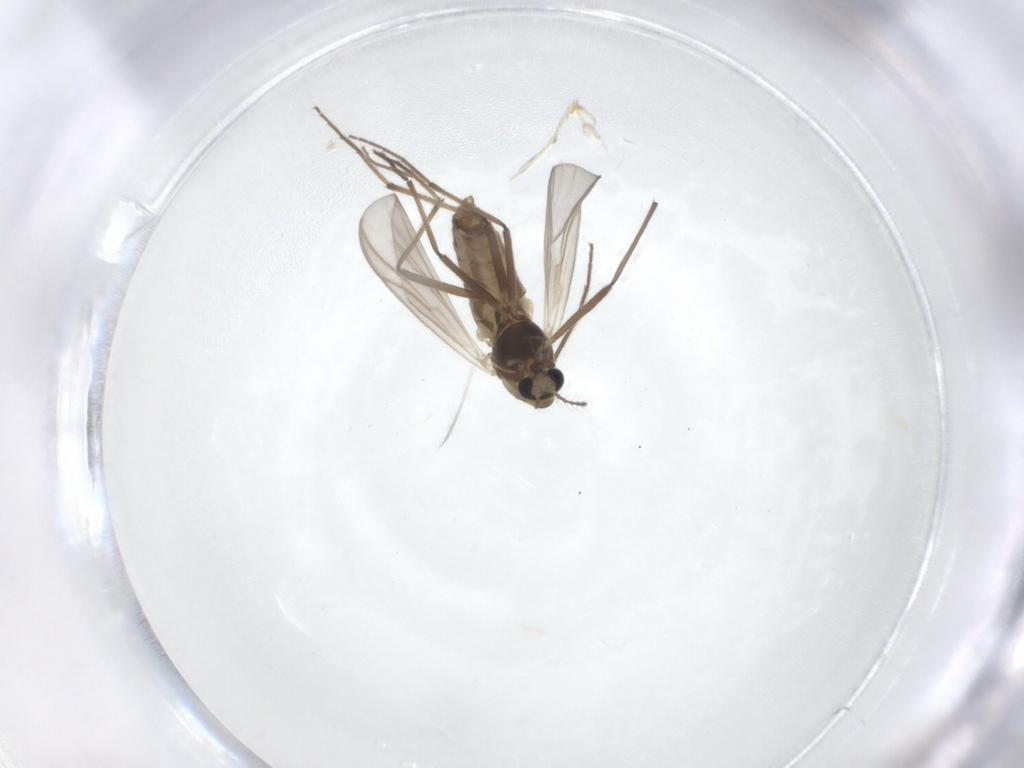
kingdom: Animalia
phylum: Arthropoda
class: Insecta
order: Diptera
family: Chironomidae
